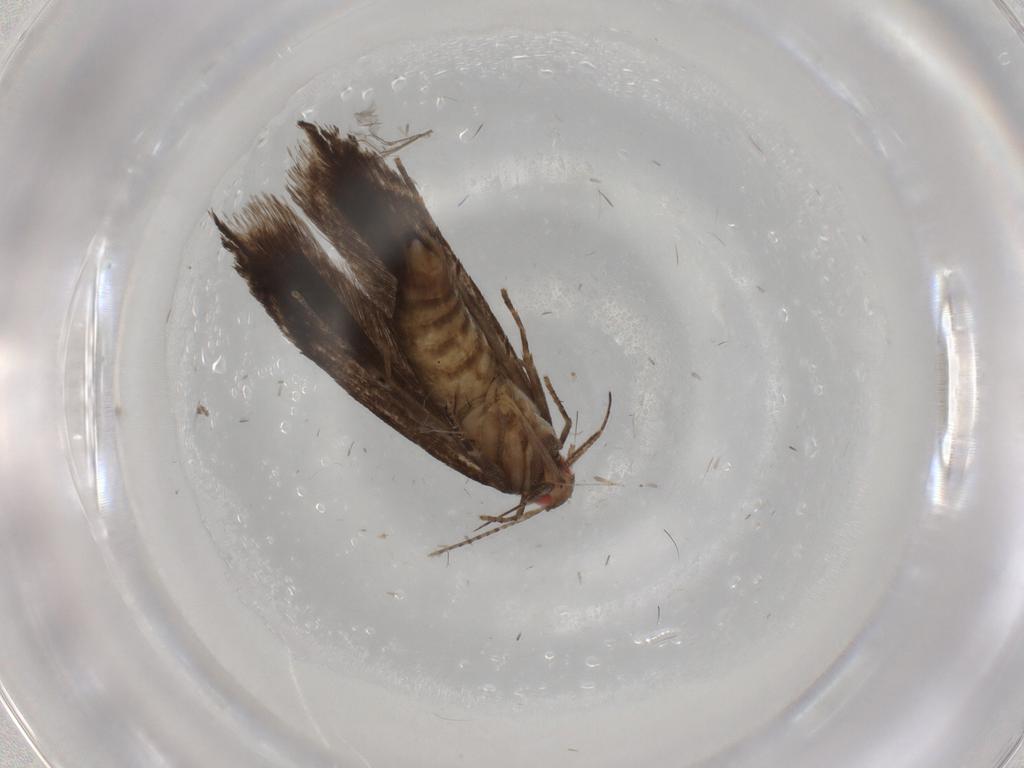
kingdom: Animalia
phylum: Arthropoda
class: Insecta
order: Lepidoptera
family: Gelechiidae
